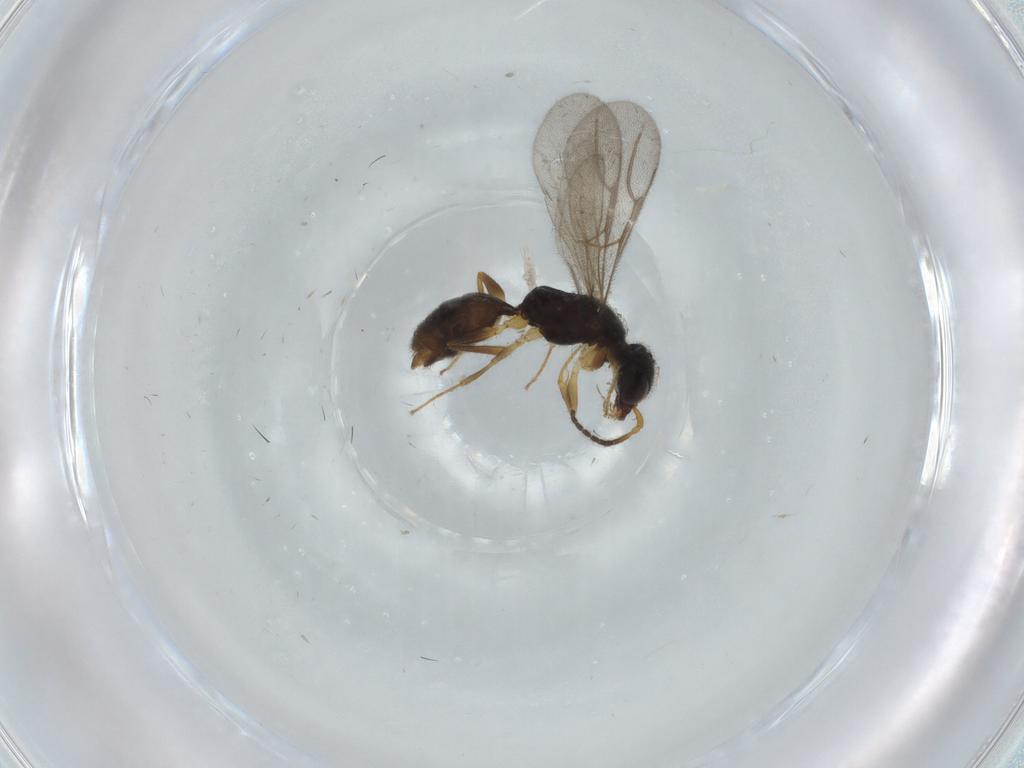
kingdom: Animalia
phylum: Arthropoda
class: Insecta
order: Hymenoptera
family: Bethylidae
